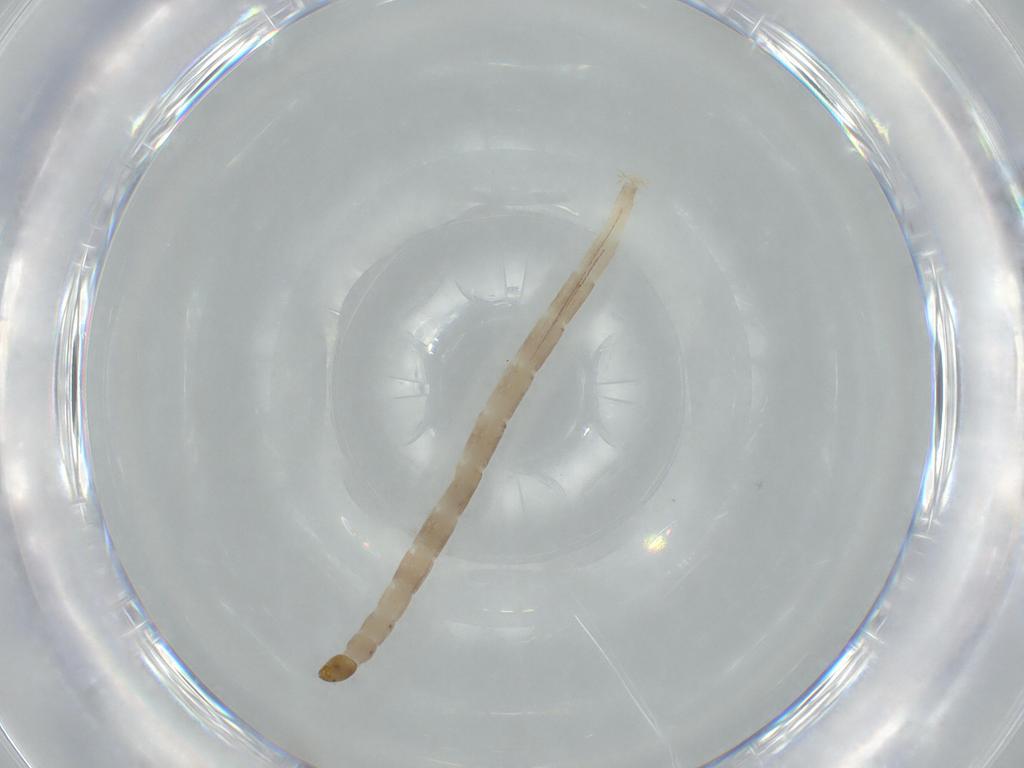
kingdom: Animalia
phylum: Arthropoda
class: Insecta
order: Diptera
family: Ceratopogonidae
